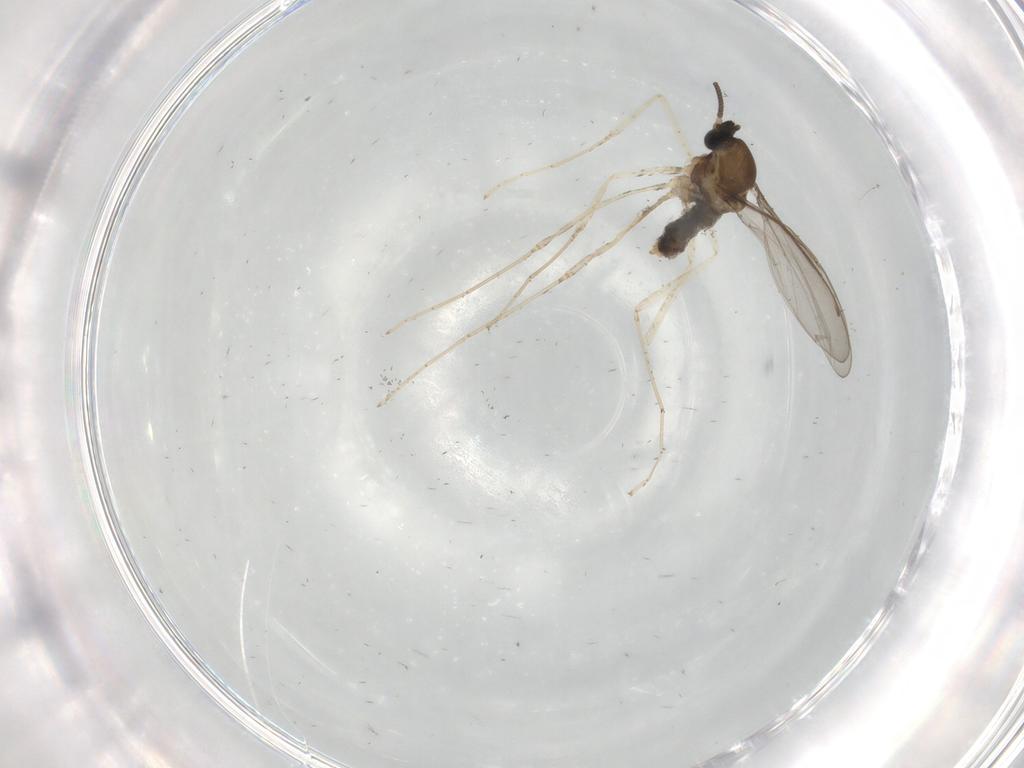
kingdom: Animalia
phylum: Arthropoda
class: Insecta
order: Diptera
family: Cecidomyiidae
